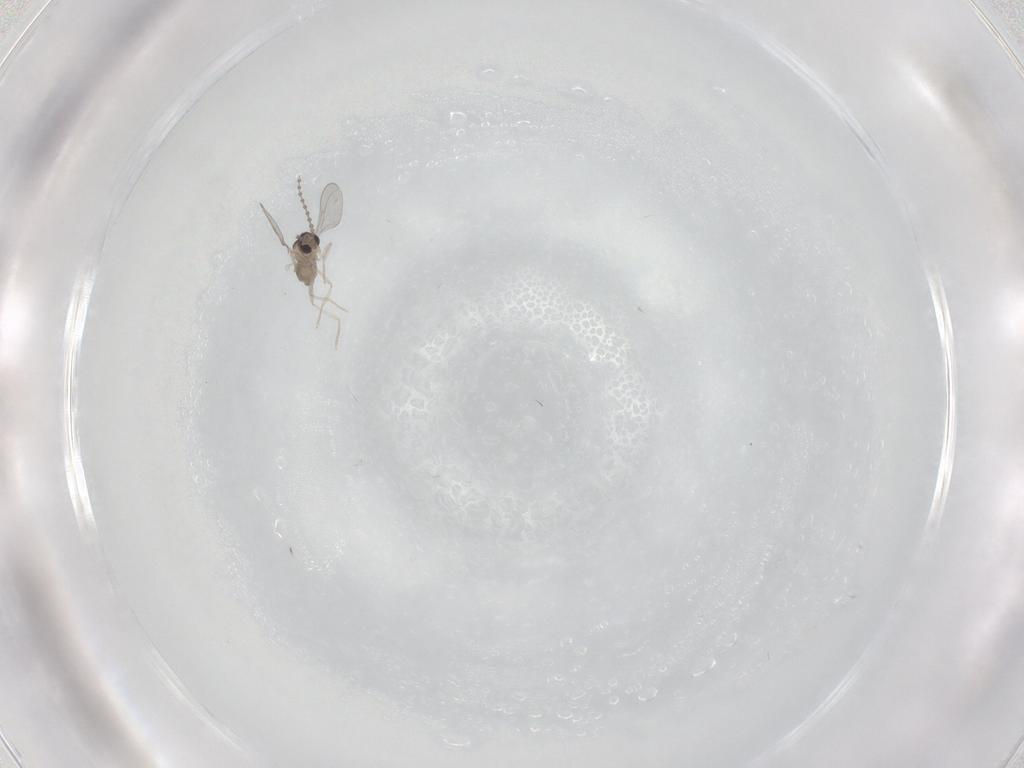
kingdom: Animalia
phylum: Arthropoda
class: Insecta
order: Diptera
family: Cecidomyiidae
